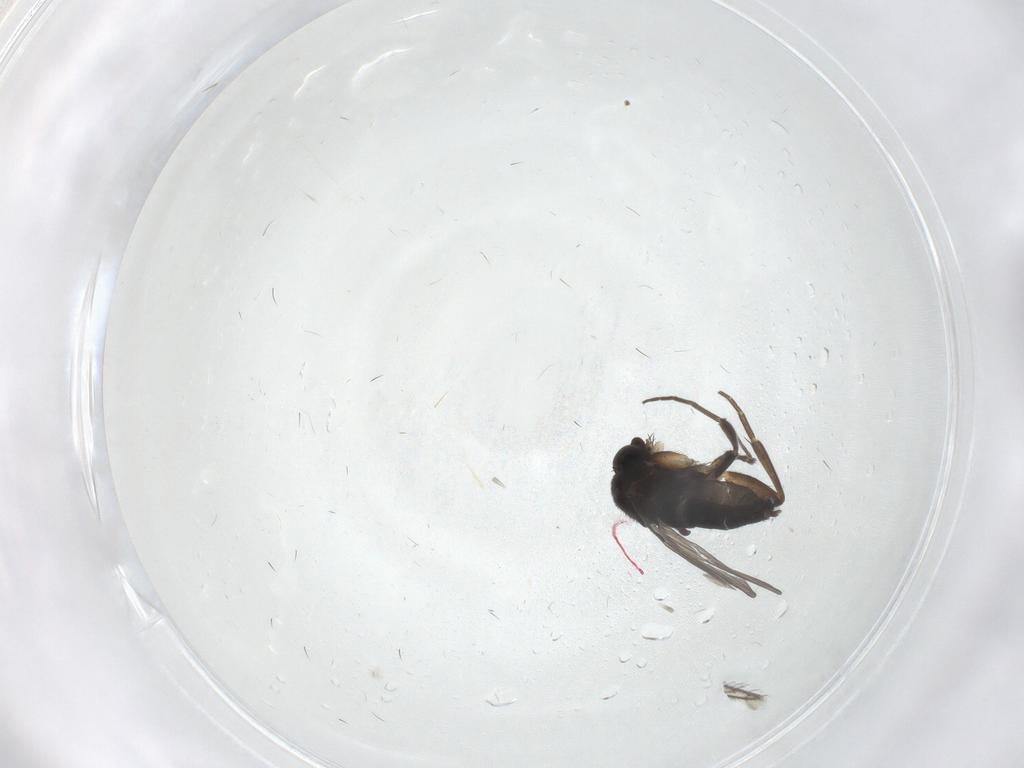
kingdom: Animalia
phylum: Arthropoda
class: Insecta
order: Diptera
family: Phoridae
